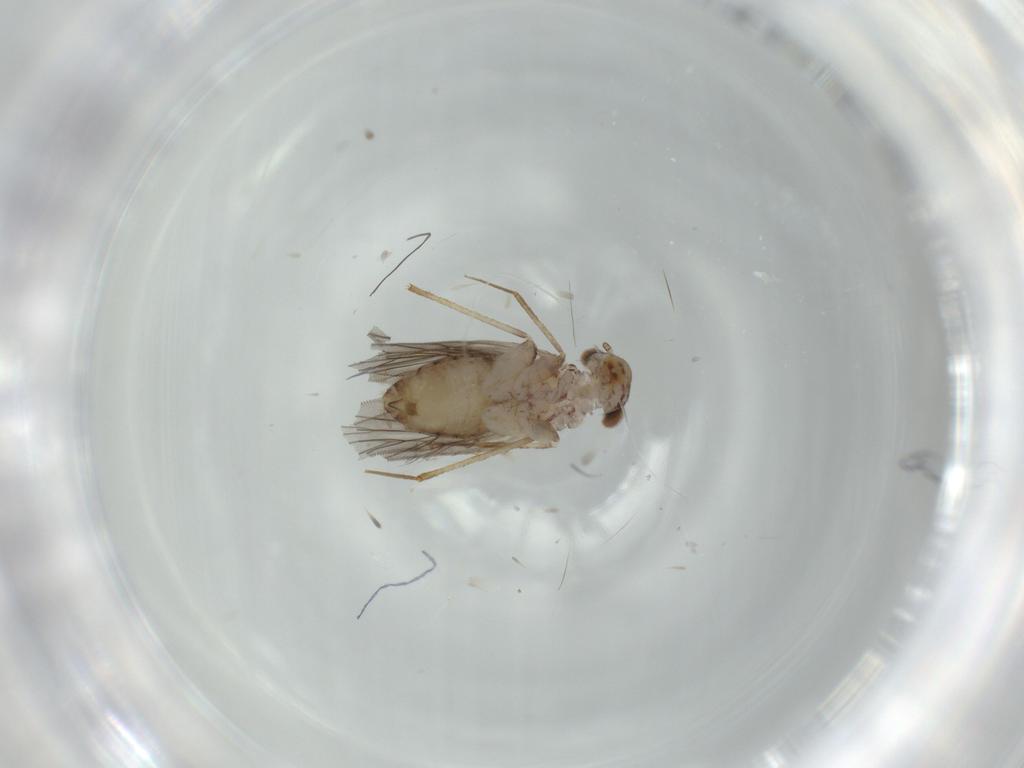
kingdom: Animalia
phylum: Arthropoda
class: Insecta
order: Psocodea
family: Lepidopsocidae
